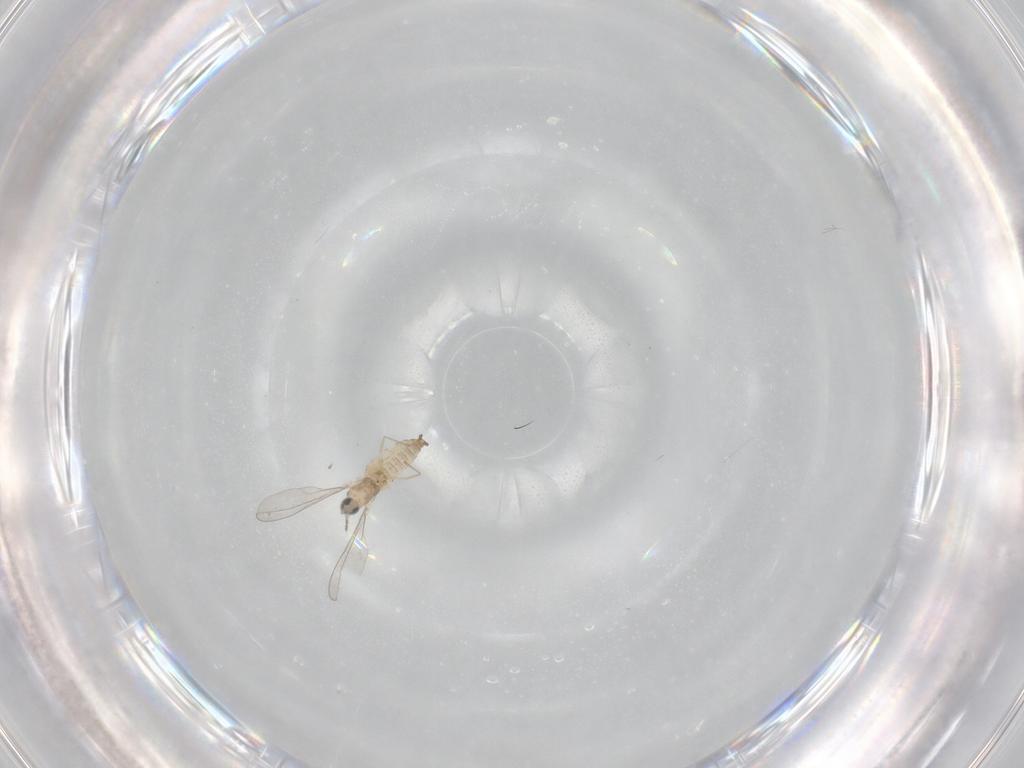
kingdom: Animalia
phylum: Arthropoda
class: Insecta
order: Diptera
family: Cecidomyiidae
